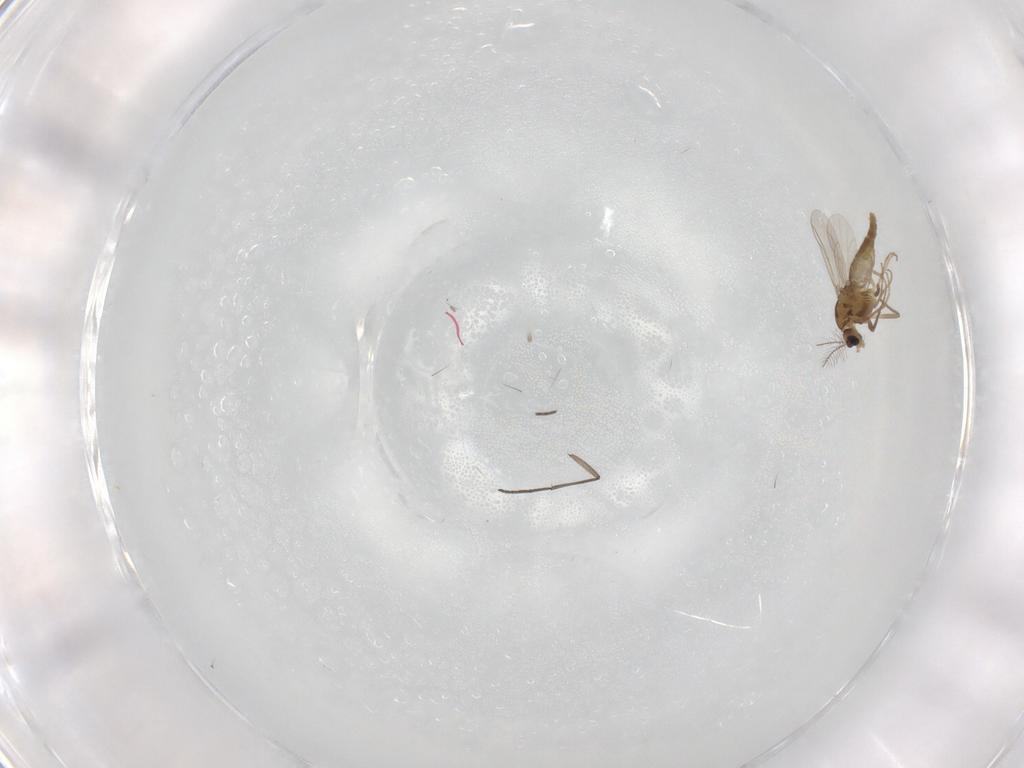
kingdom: Animalia
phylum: Arthropoda
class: Insecta
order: Diptera
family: Chironomidae
